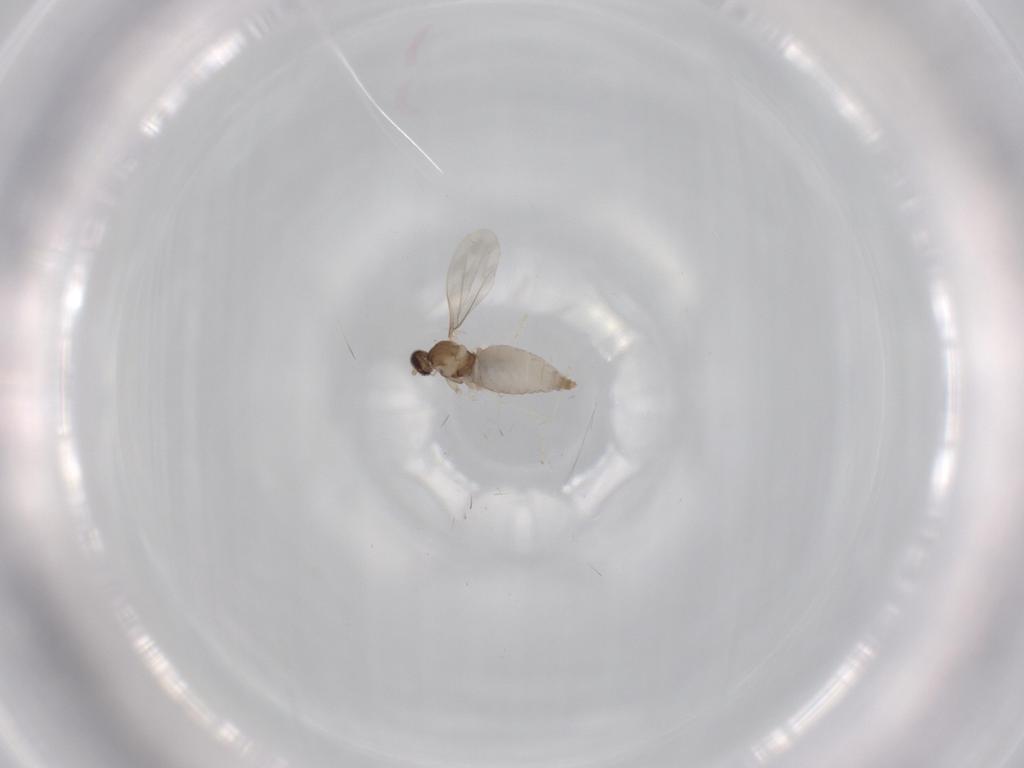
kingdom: Animalia
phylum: Arthropoda
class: Insecta
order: Diptera
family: Cecidomyiidae
